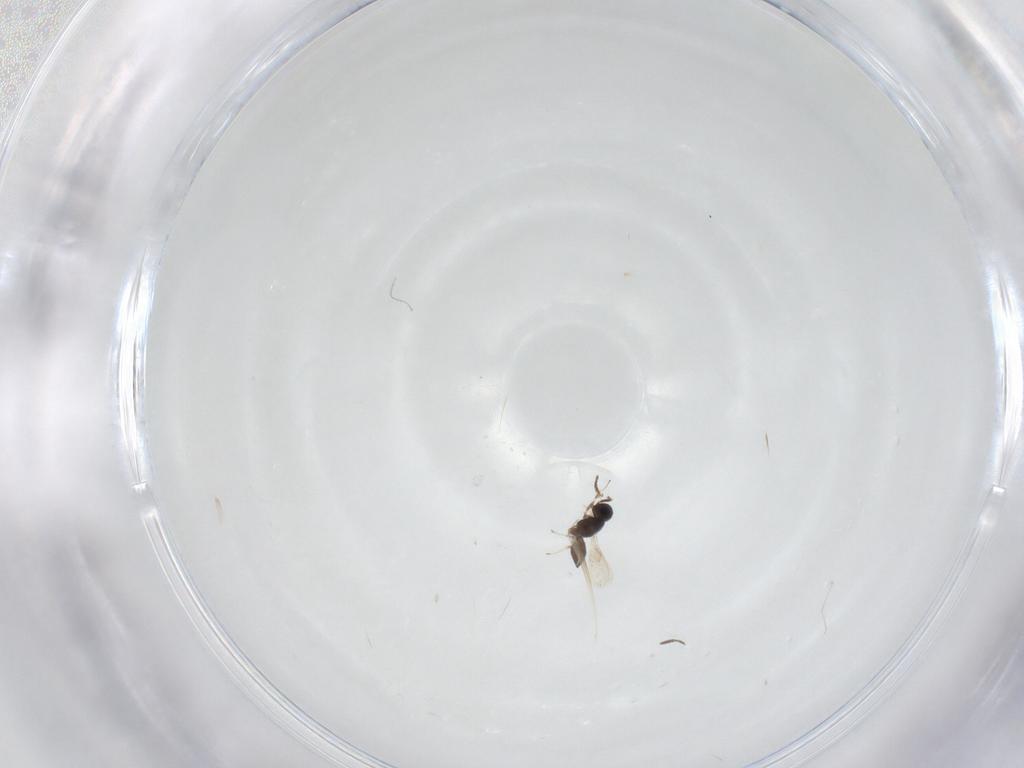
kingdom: Animalia
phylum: Arthropoda
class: Insecta
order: Hymenoptera
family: Scelionidae
